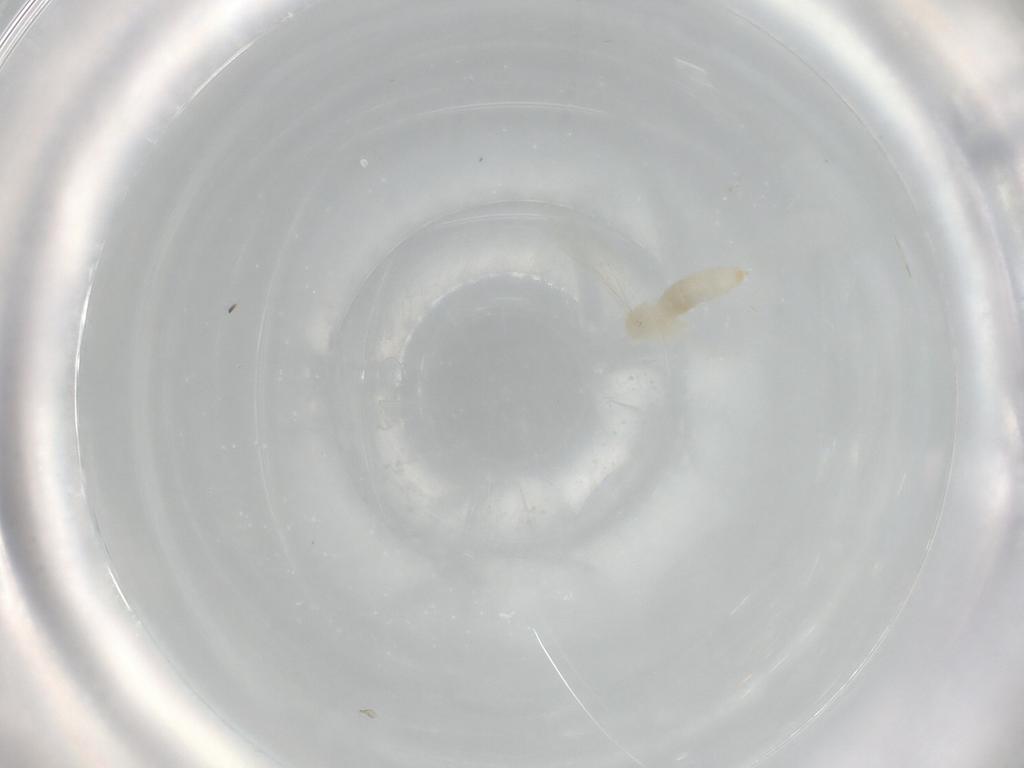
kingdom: Animalia
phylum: Arthropoda
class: Insecta
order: Diptera
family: Cecidomyiidae
